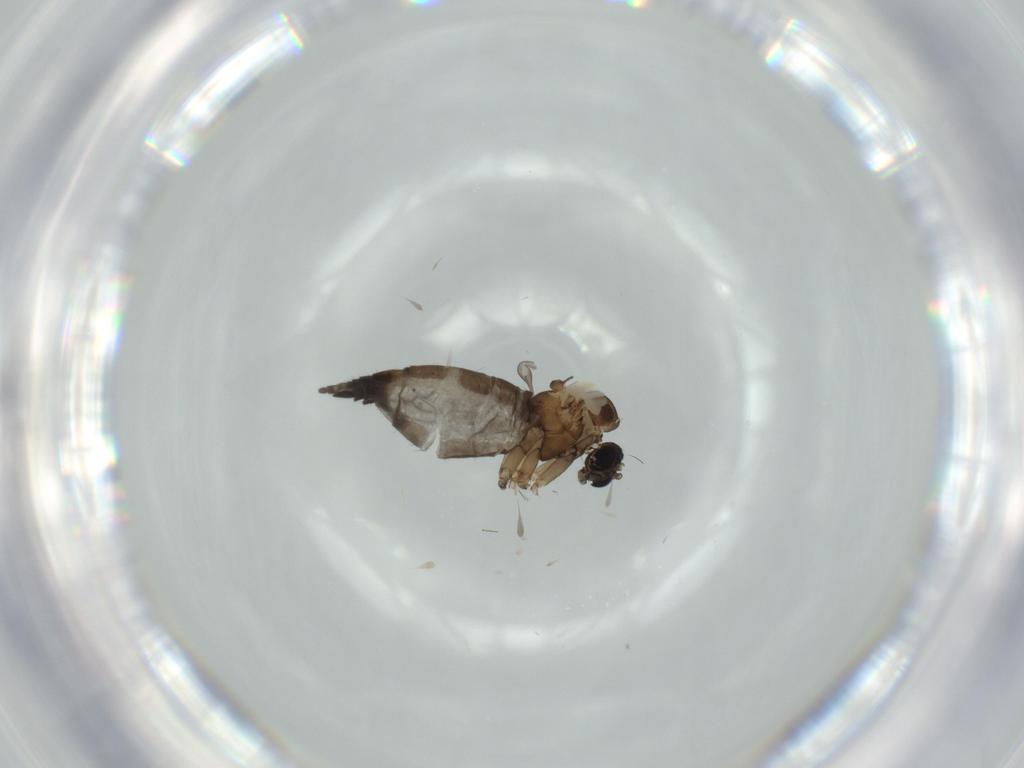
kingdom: Animalia
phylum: Arthropoda
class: Insecta
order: Diptera
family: Sciaridae
